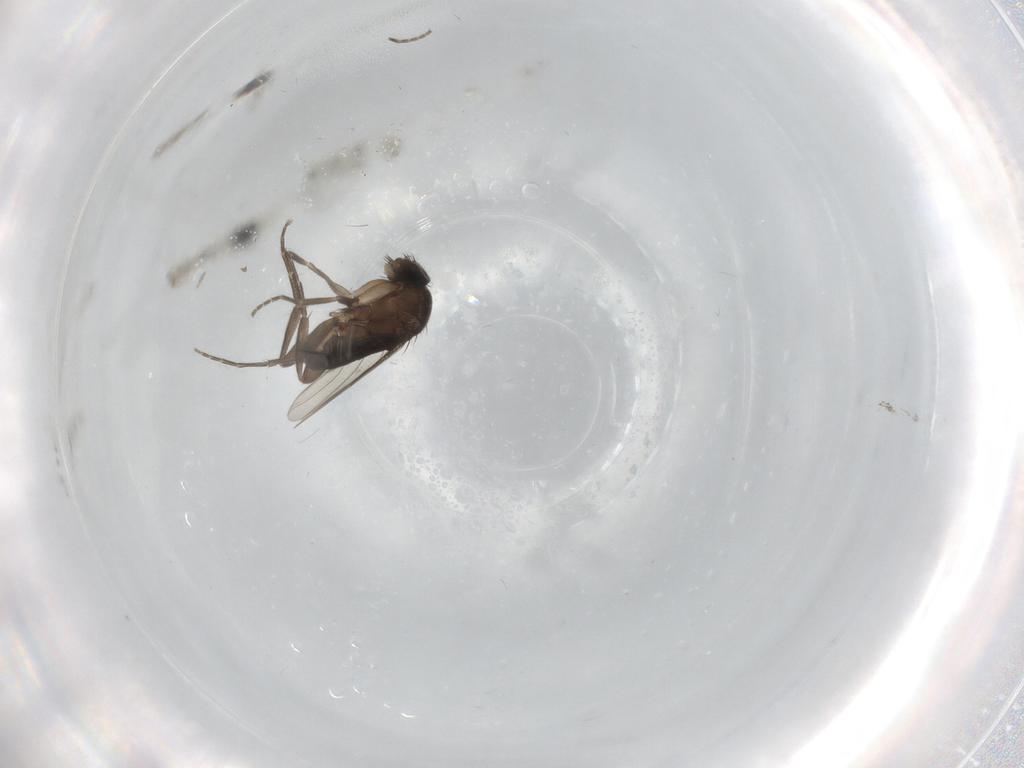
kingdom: Animalia
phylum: Arthropoda
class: Insecta
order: Diptera
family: Phoridae
